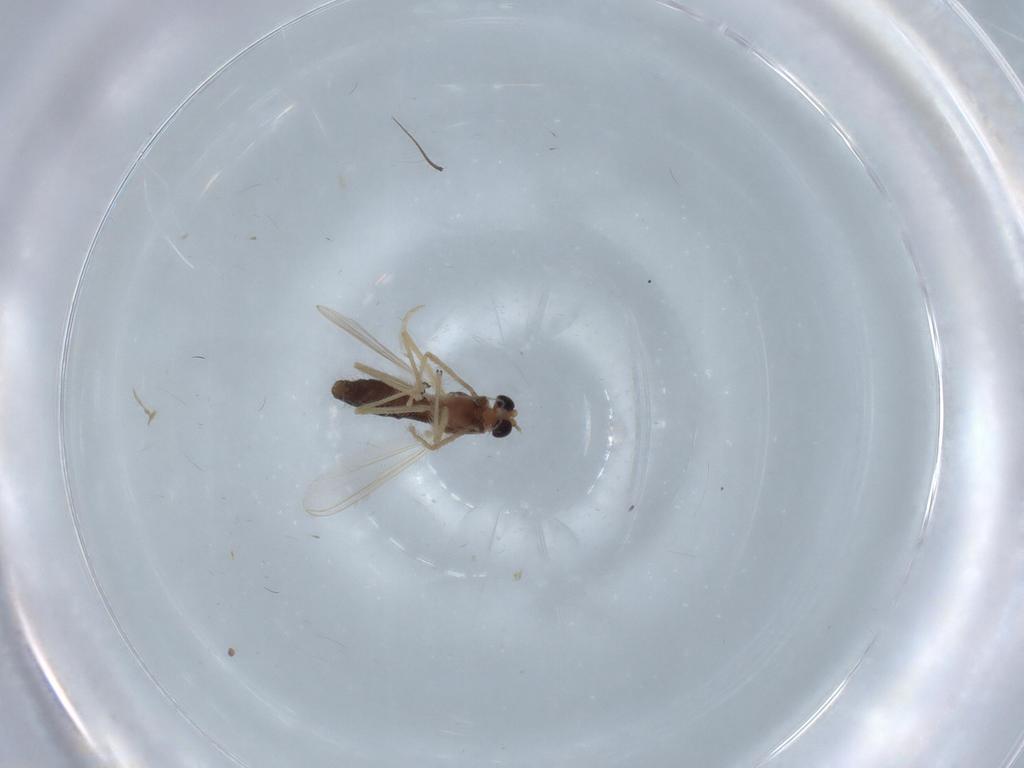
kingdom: Animalia
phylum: Arthropoda
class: Insecta
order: Diptera
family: Chironomidae
